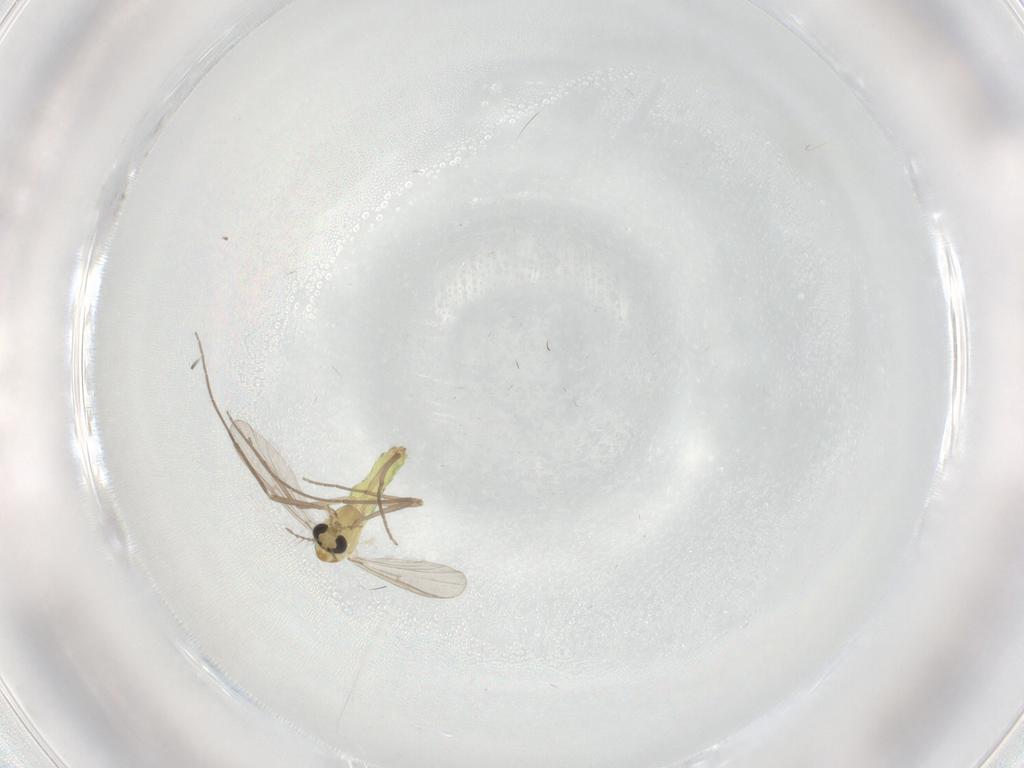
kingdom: Animalia
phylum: Arthropoda
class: Insecta
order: Diptera
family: Chironomidae
